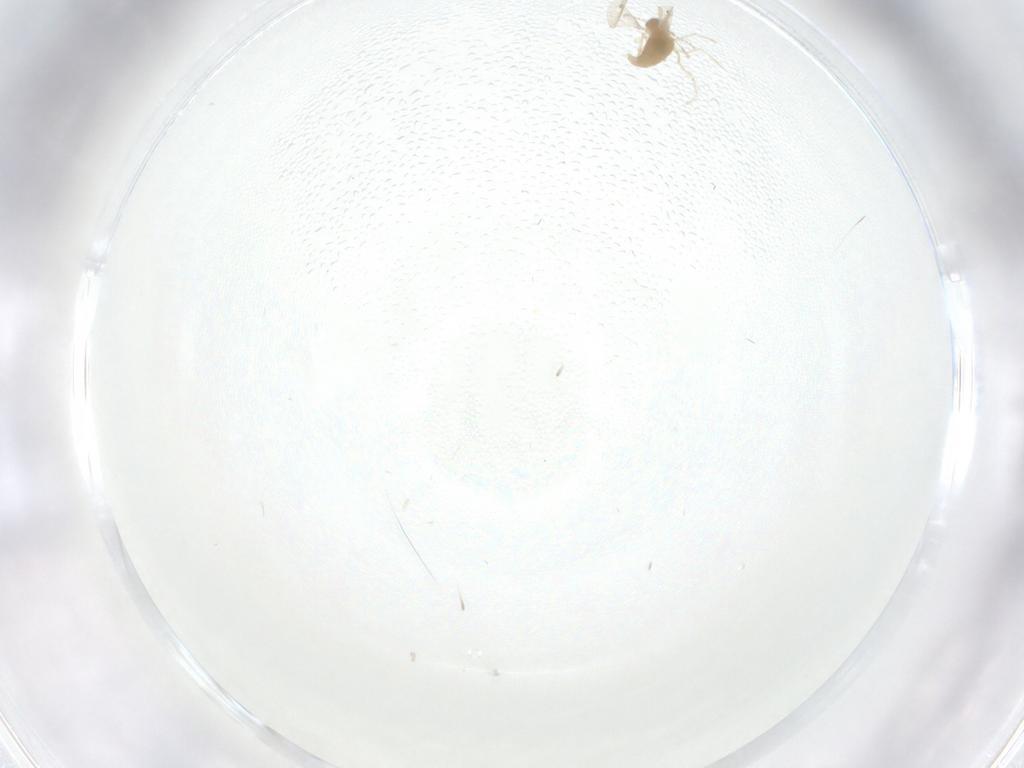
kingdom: Animalia
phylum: Arthropoda
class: Insecta
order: Diptera
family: Cecidomyiidae
